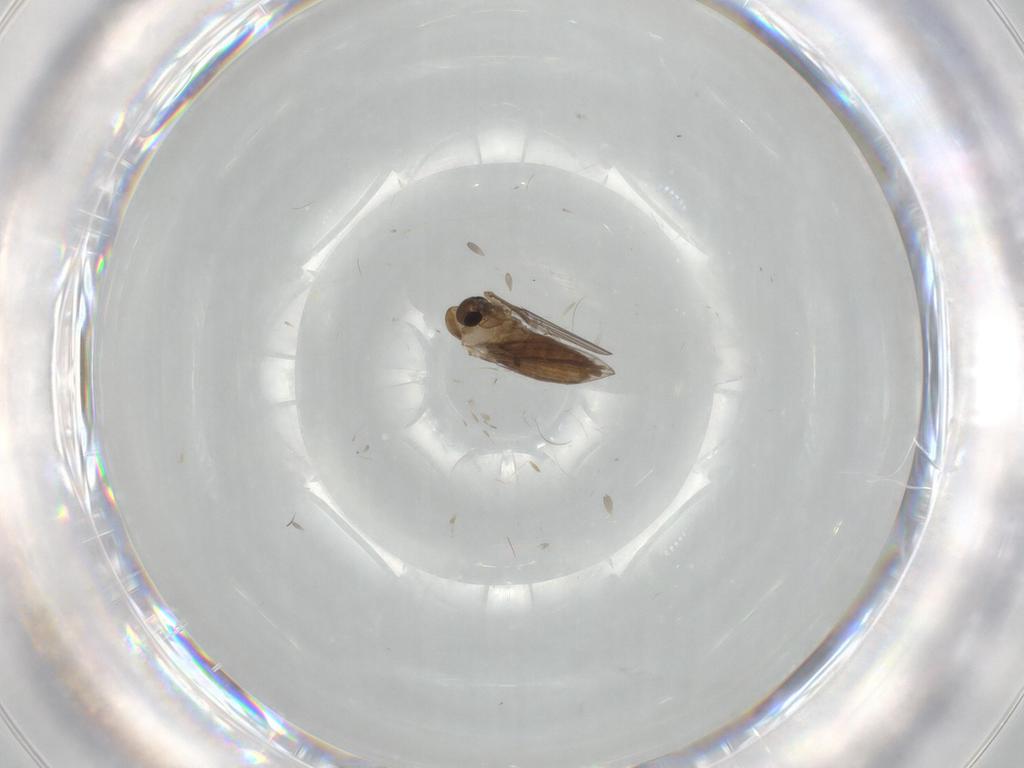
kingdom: Animalia
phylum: Arthropoda
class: Insecta
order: Diptera
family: Psychodidae
